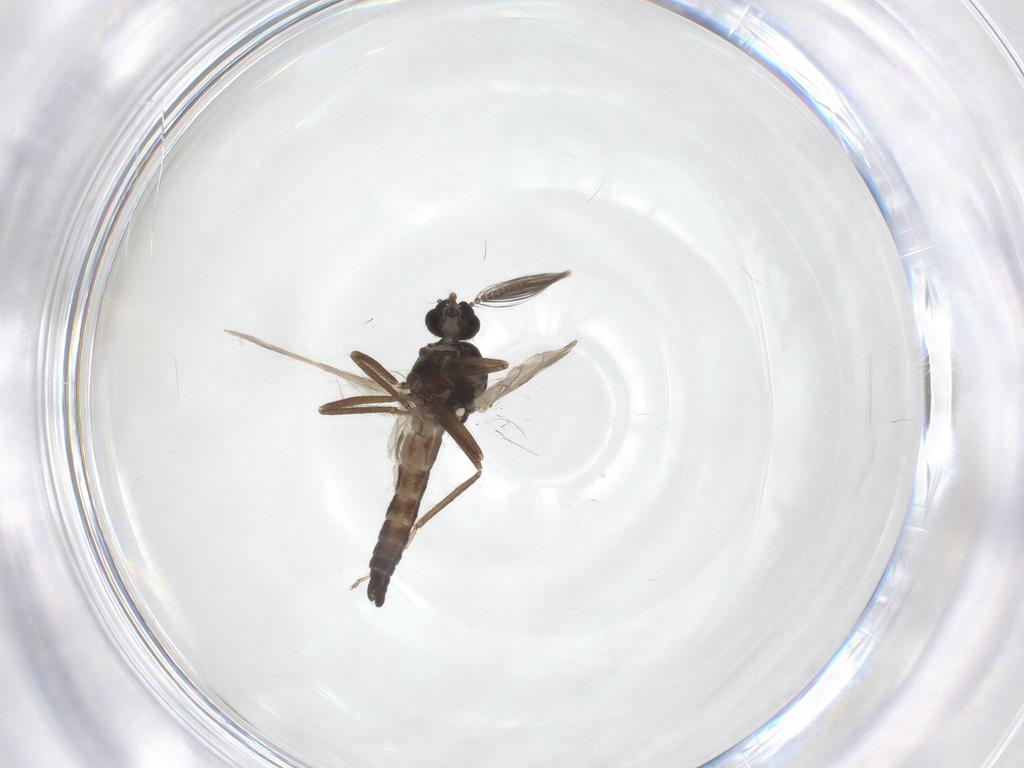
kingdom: Animalia
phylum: Arthropoda
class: Insecta
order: Diptera
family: Ceratopogonidae
